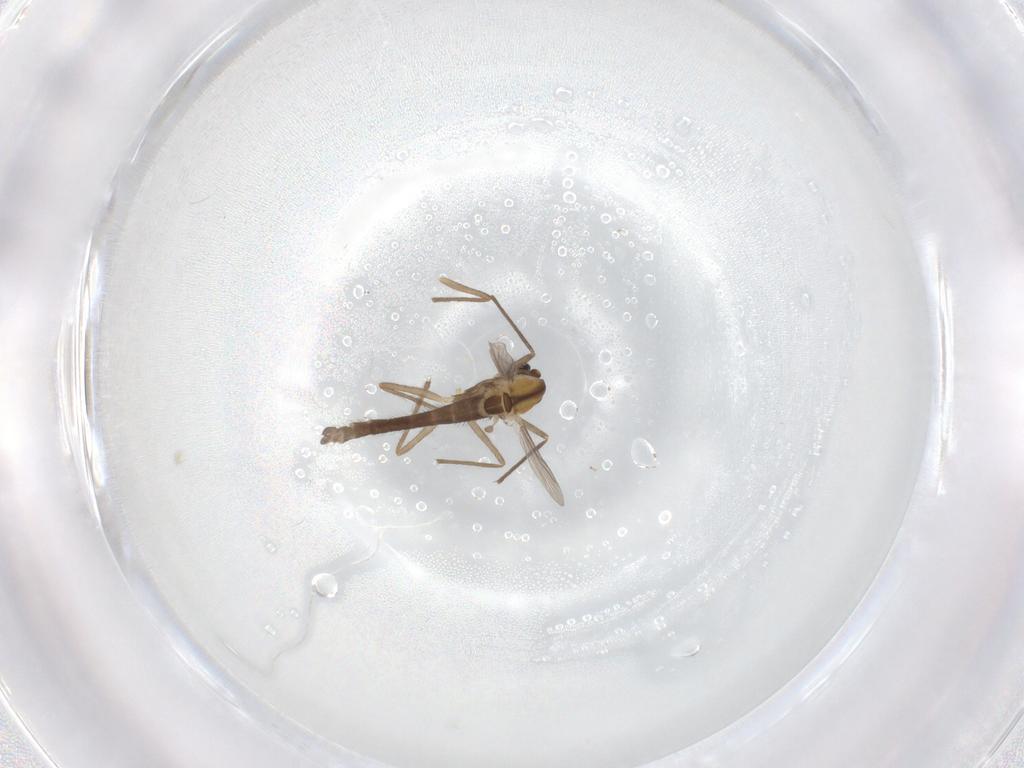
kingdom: Animalia
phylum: Arthropoda
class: Insecta
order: Diptera
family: Chironomidae
